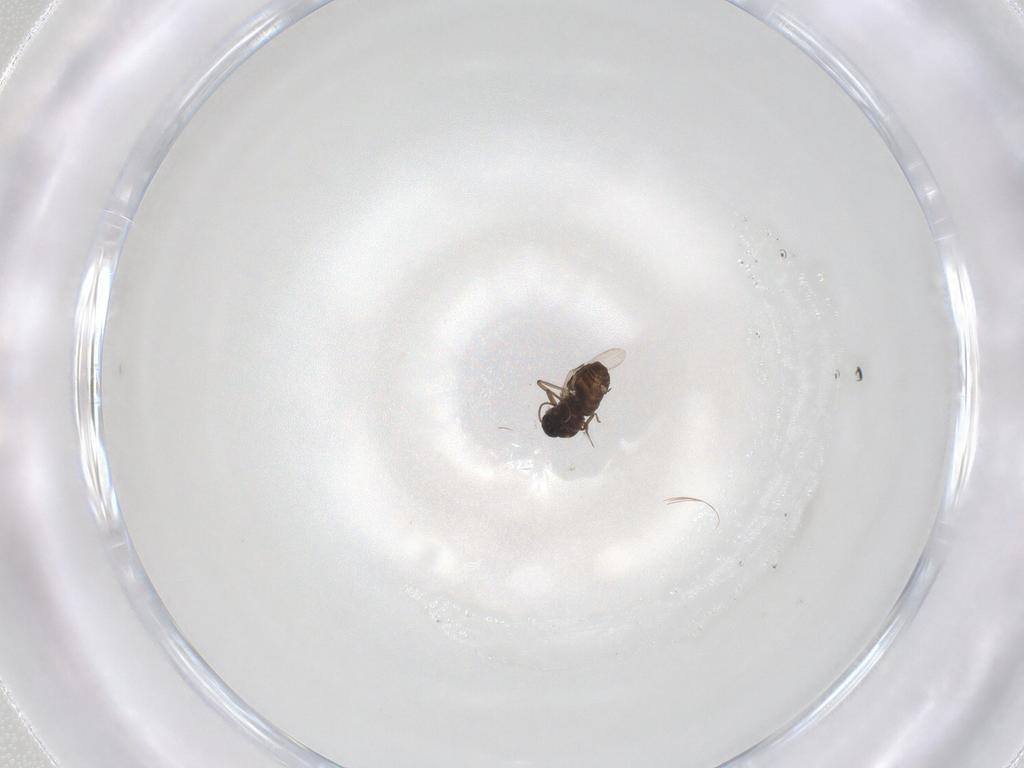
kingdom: Animalia
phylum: Arthropoda
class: Insecta
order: Diptera
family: Ceratopogonidae
